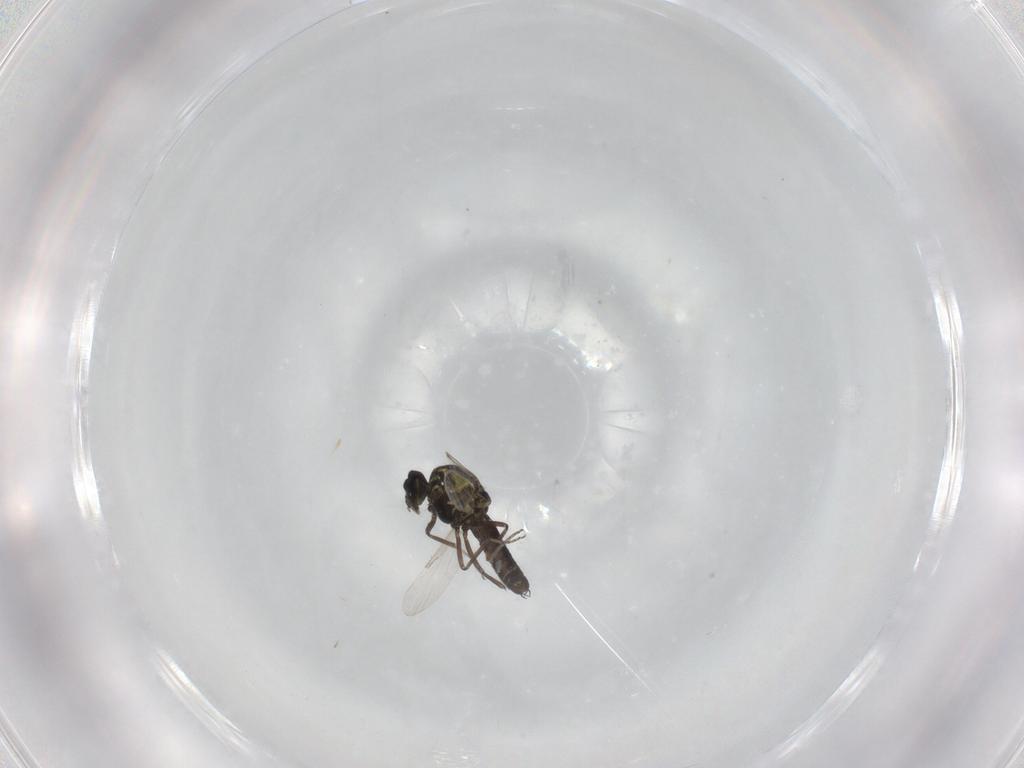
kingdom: Animalia
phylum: Arthropoda
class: Insecta
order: Diptera
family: Ceratopogonidae
